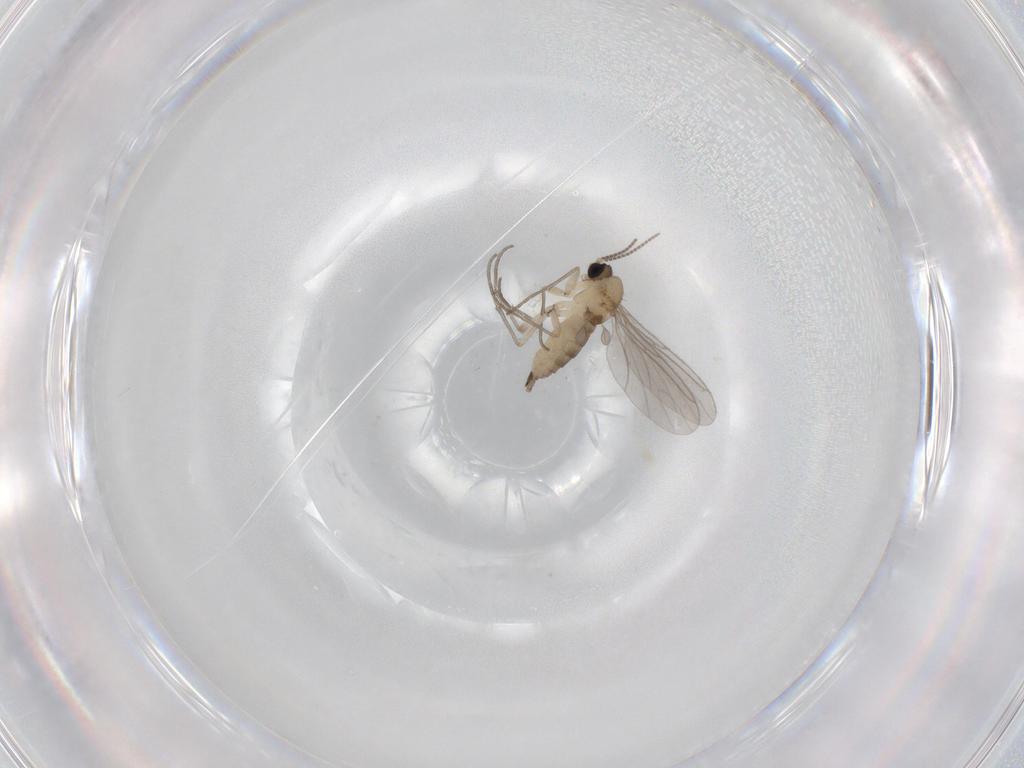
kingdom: Animalia
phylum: Arthropoda
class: Insecta
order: Diptera
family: Sciaridae
